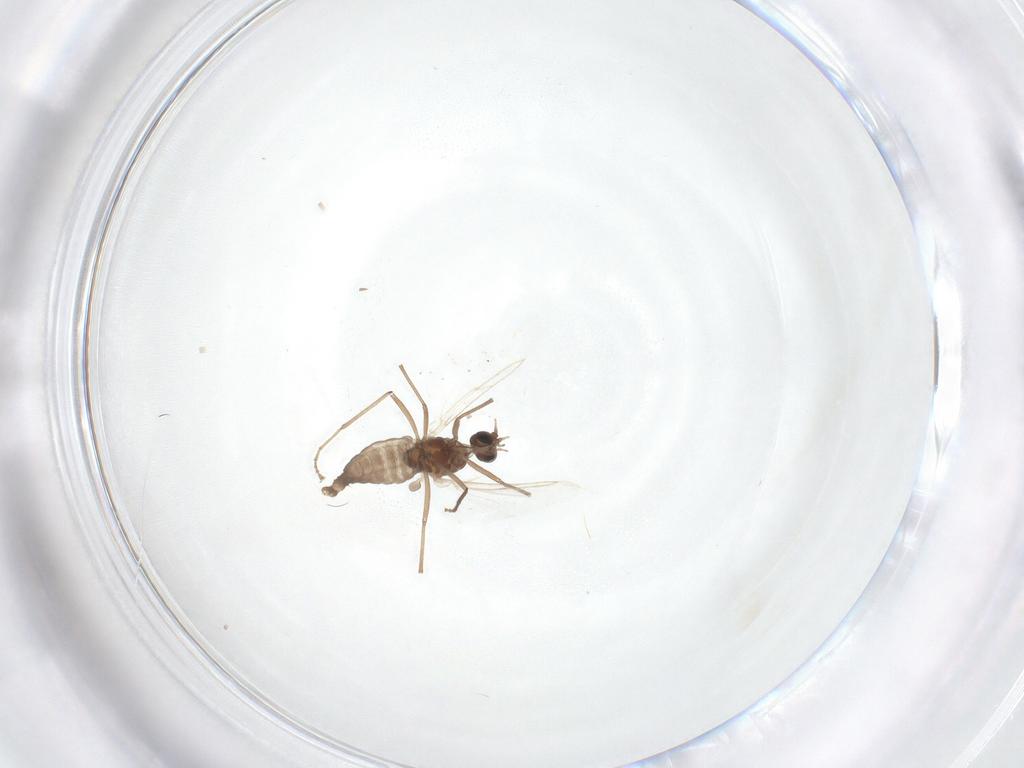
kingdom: Animalia
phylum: Arthropoda
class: Insecta
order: Diptera
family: Cecidomyiidae
